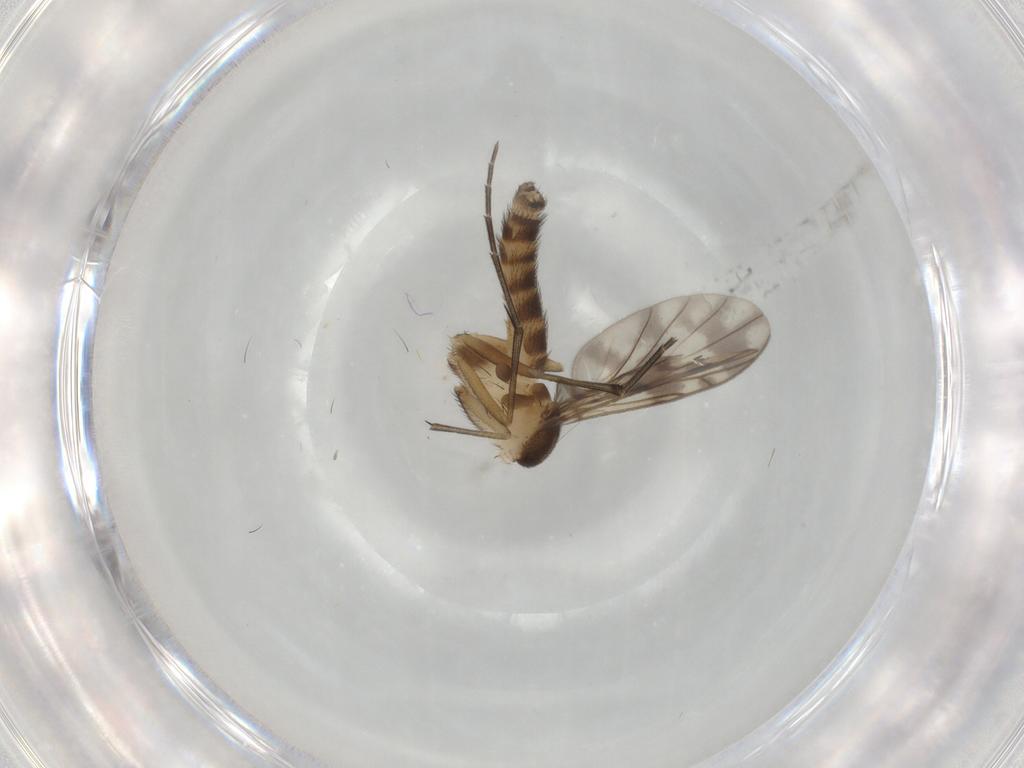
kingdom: Animalia
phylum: Arthropoda
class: Insecta
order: Diptera
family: Keroplatidae
